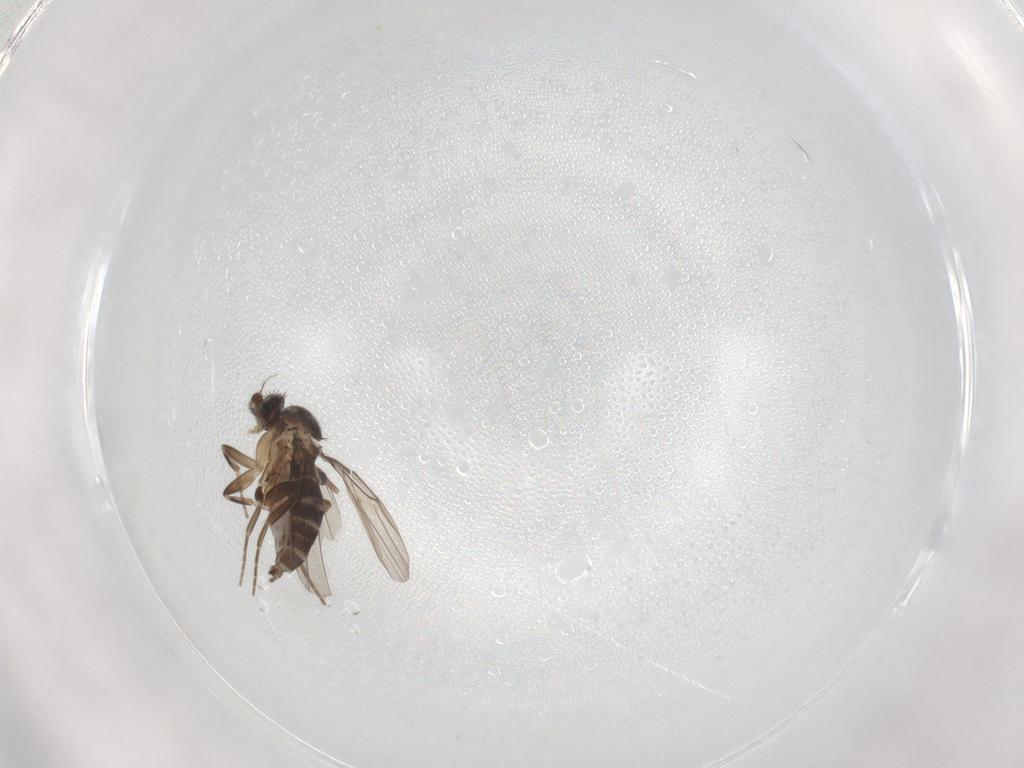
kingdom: Animalia
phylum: Arthropoda
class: Insecta
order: Diptera
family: Phoridae
